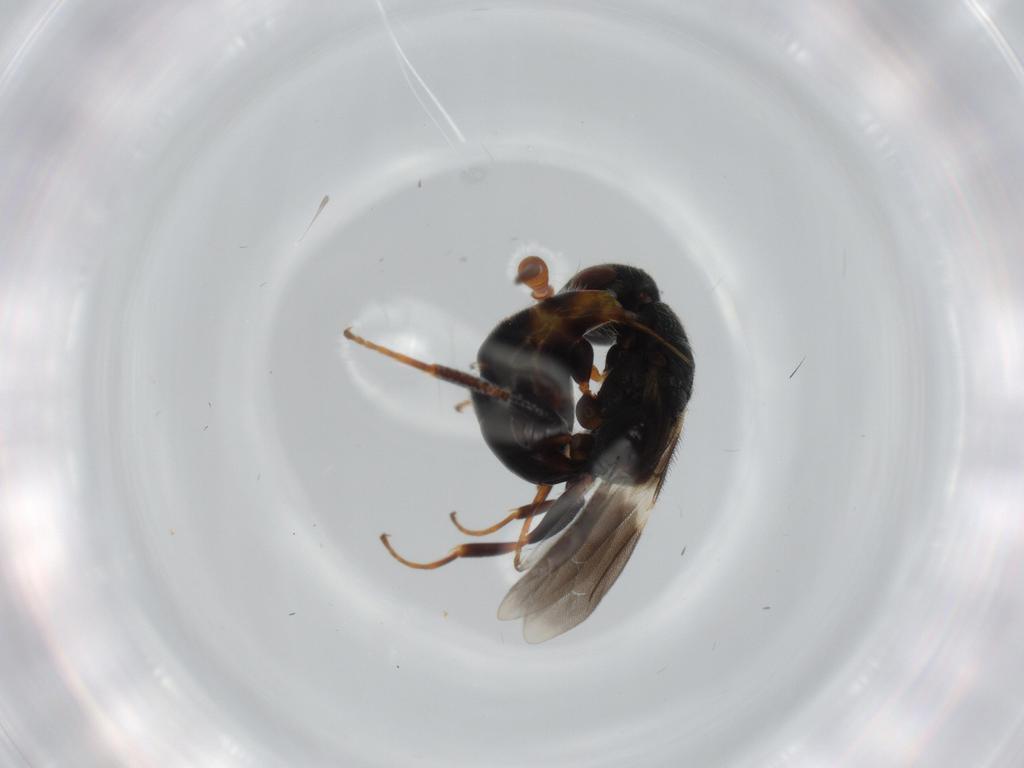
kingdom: Animalia
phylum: Arthropoda
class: Insecta
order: Hymenoptera
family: Bethylidae
